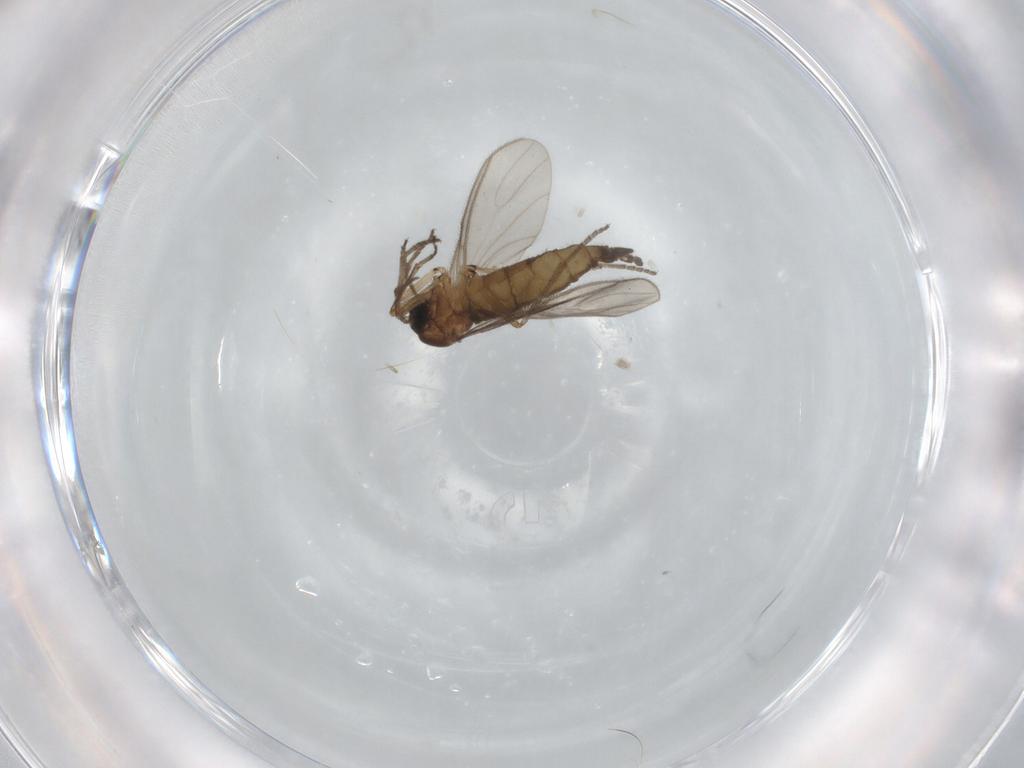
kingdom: Animalia
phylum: Arthropoda
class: Insecta
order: Diptera
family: Sciaridae
